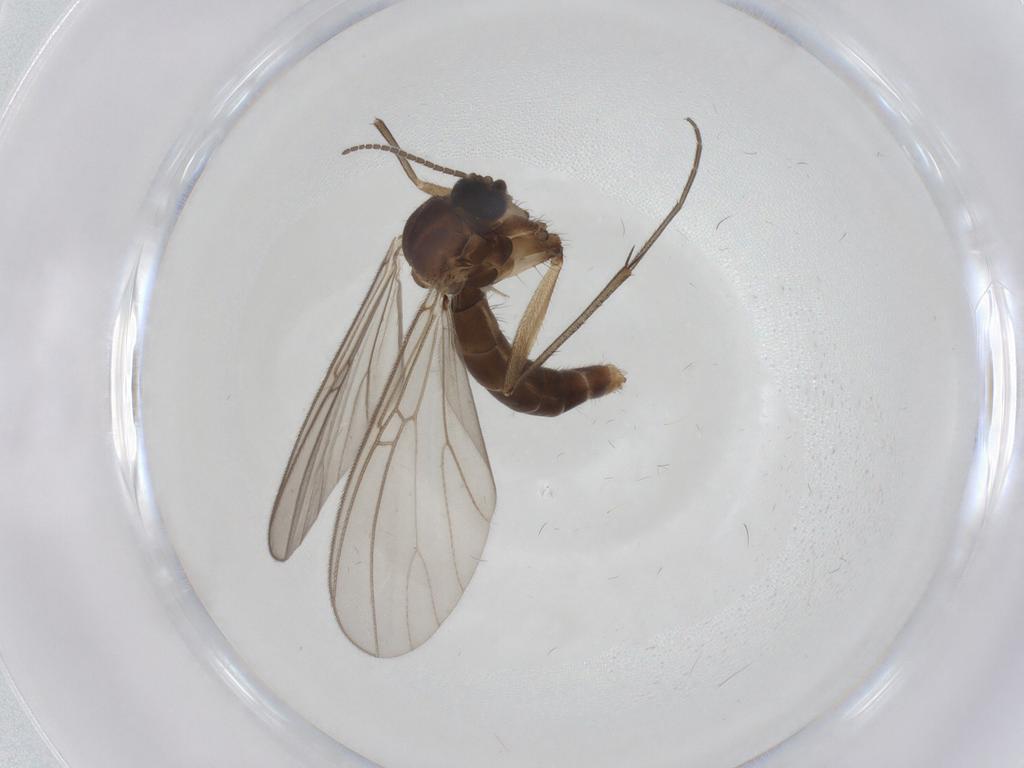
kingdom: Animalia
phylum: Arthropoda
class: Insecta
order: Diptera
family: Mycetophilidae
